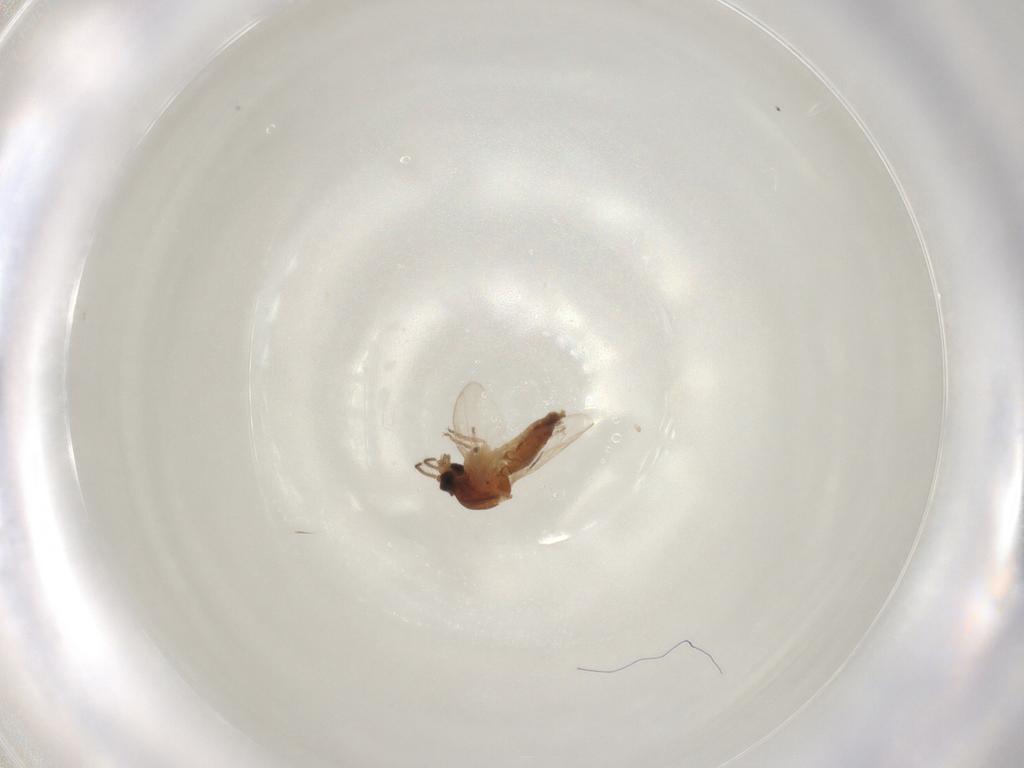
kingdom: Animalia
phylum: Arthropoda
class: Insecta
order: Diptera
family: Ceratopogonidae
